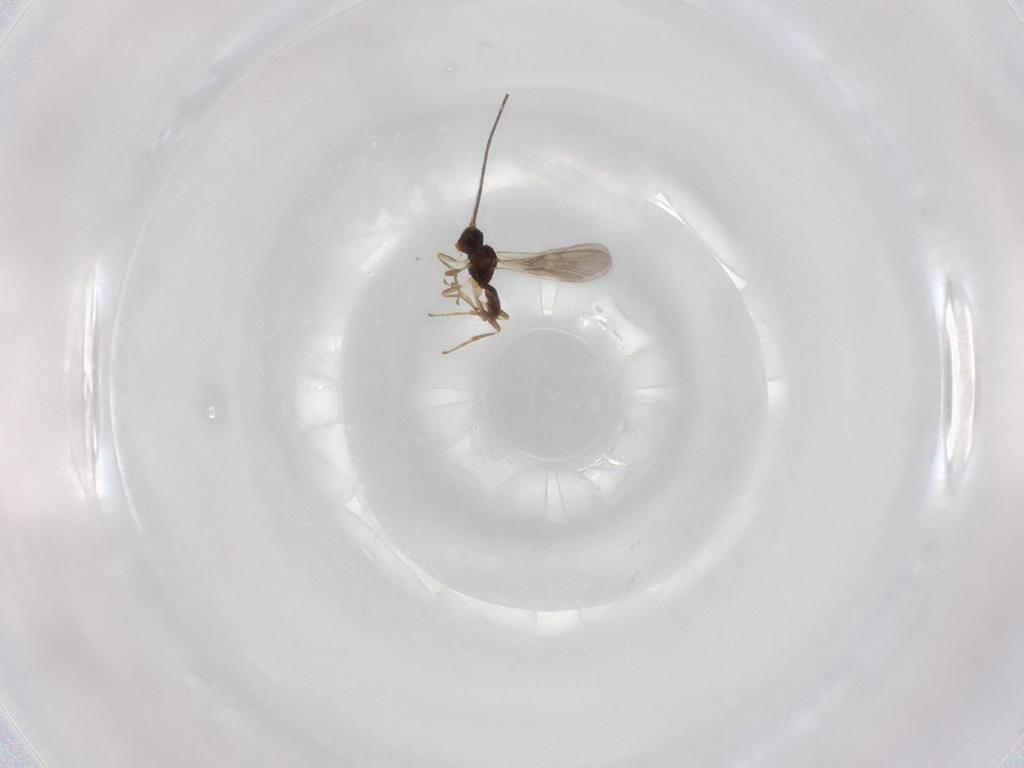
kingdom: Animalia
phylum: Arthropoda
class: Insecta
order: Hymenoptera
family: Braconidae
